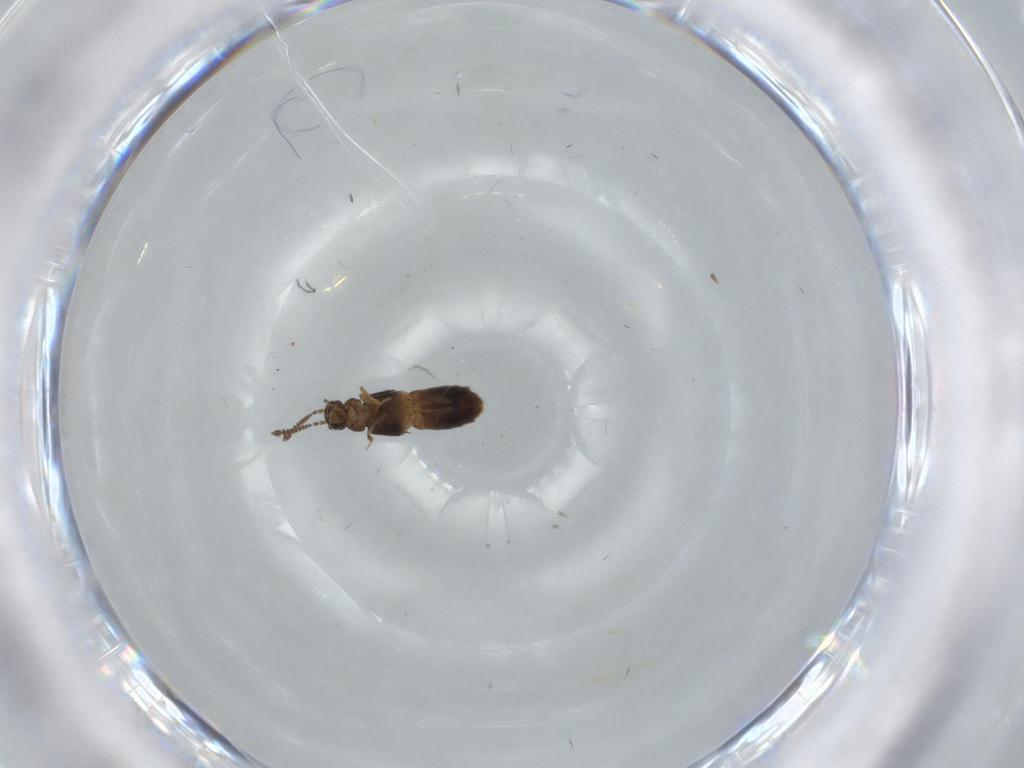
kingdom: Animalia
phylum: Arthropoda
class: Insecta
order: Coleoptera
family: Staphylinidae
